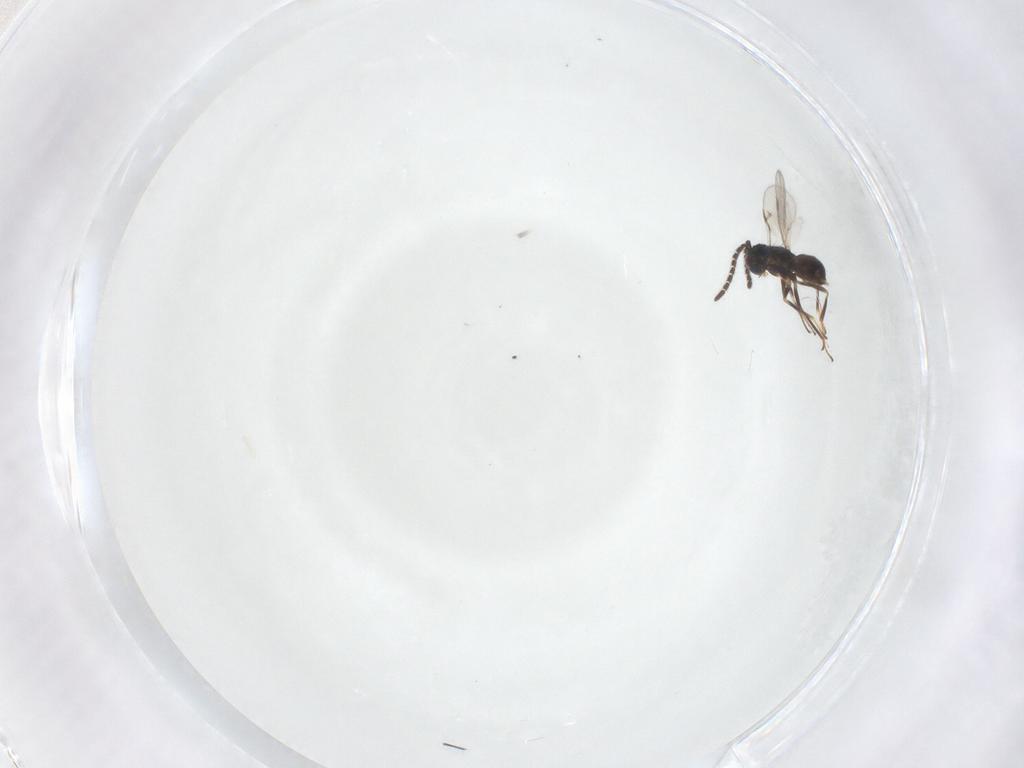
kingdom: Animalia
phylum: Arthropoda
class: Insecta
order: Hymenoptera
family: Encyrtidae
